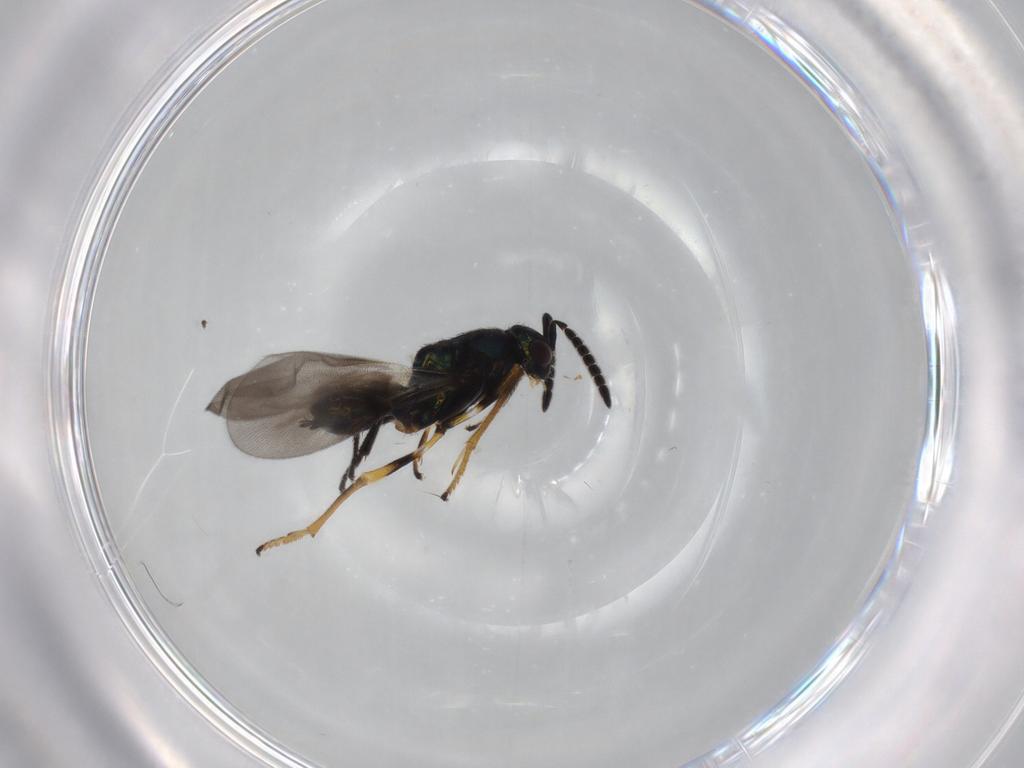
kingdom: Animalia
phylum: Arthropoda
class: Insecta
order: Hymenoptera
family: Encyrtidae
